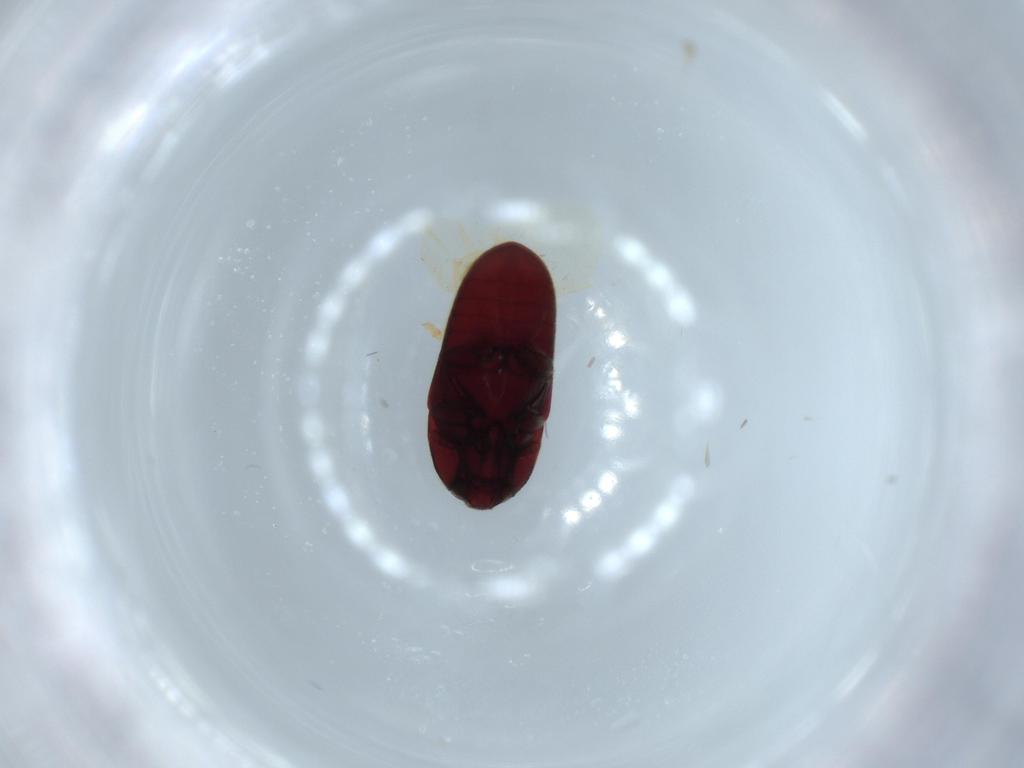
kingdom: Animalia
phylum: Arthropoda
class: Insecta
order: Coleoptera
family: Throscidae
